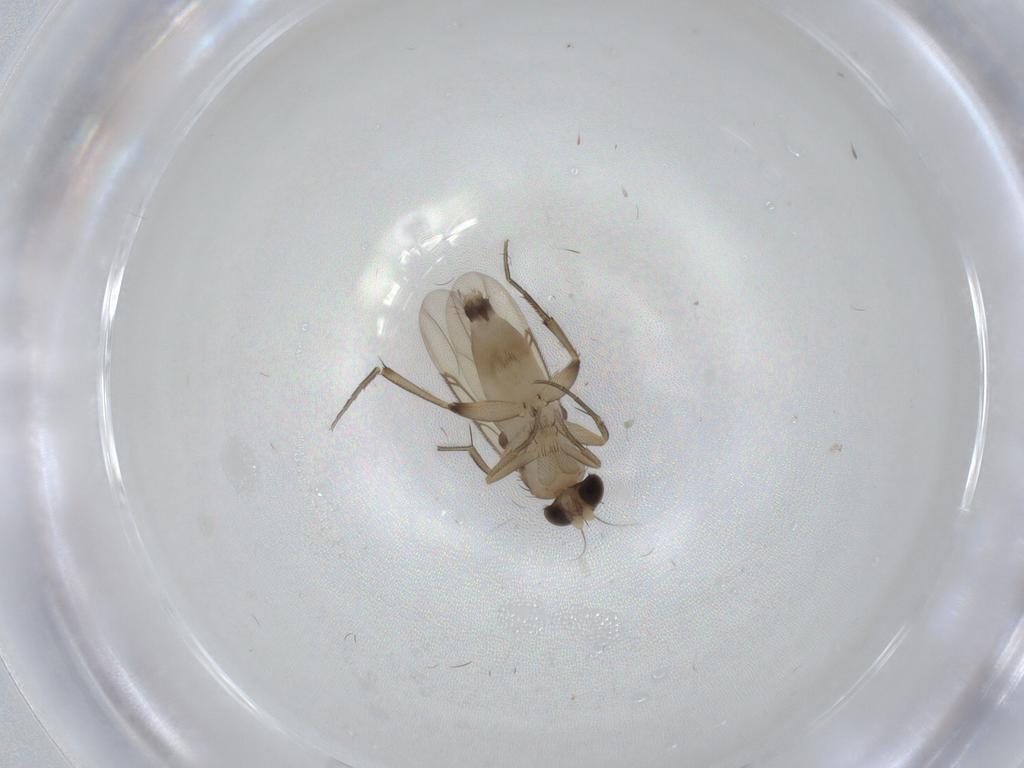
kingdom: Animalia
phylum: Arthropoda
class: Insecta
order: Diptera
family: Phoridae
